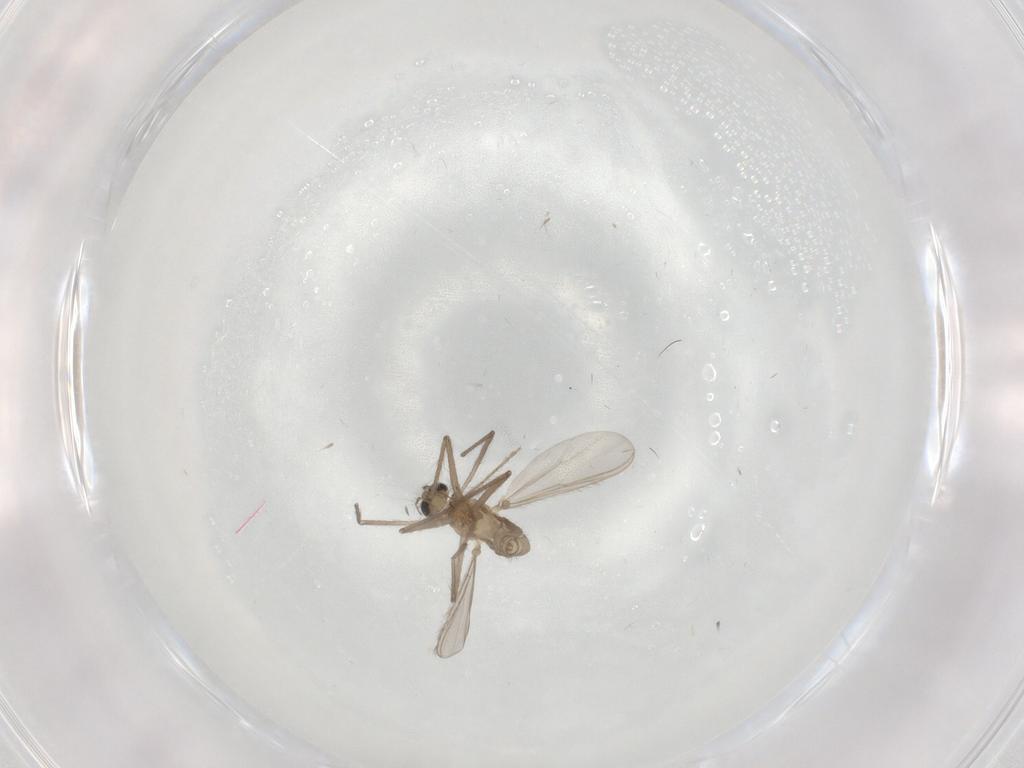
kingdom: Animalia
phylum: Arthropoda
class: Insecta
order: Diptera
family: Chironomidae
